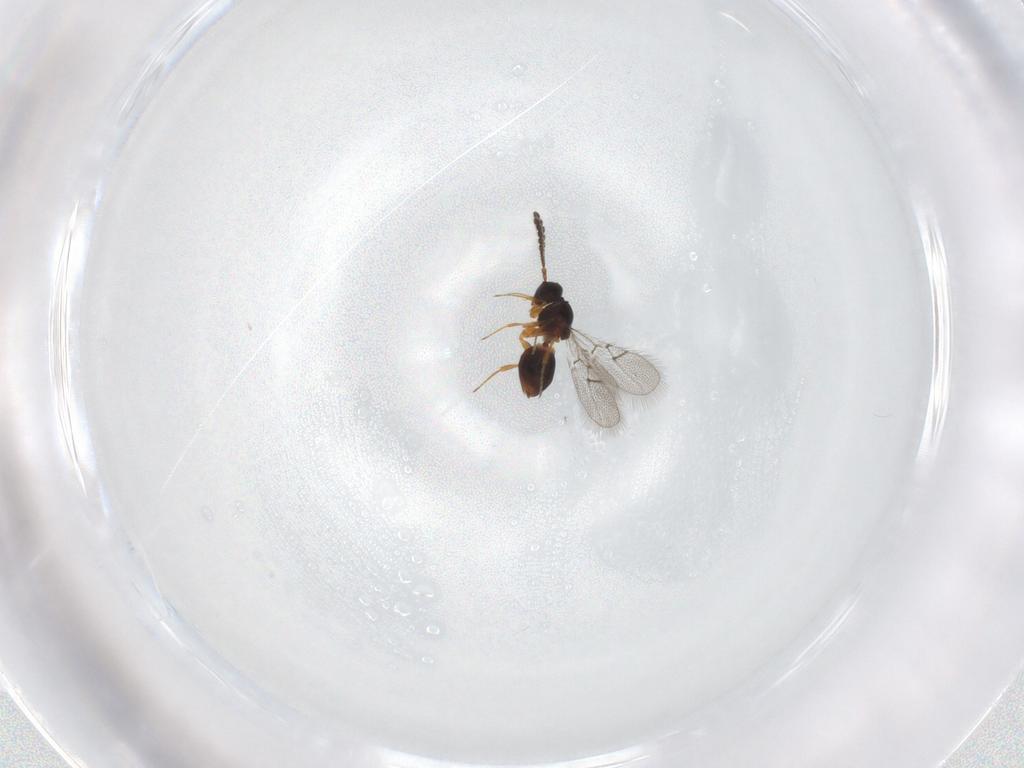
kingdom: Animalia
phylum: Arthropoda
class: Insecta
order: Hymenoptera
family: Figitidae
